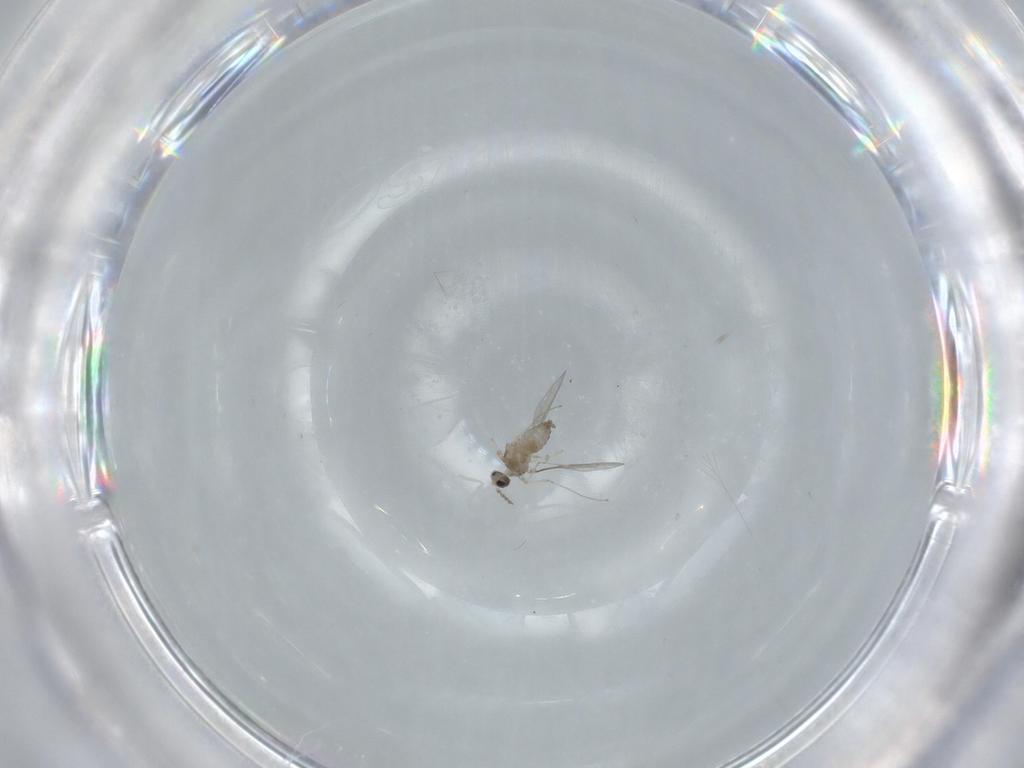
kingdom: Animalia
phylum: Arthropoda
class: Insecta
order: Diptera
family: Cecidomyiidae
